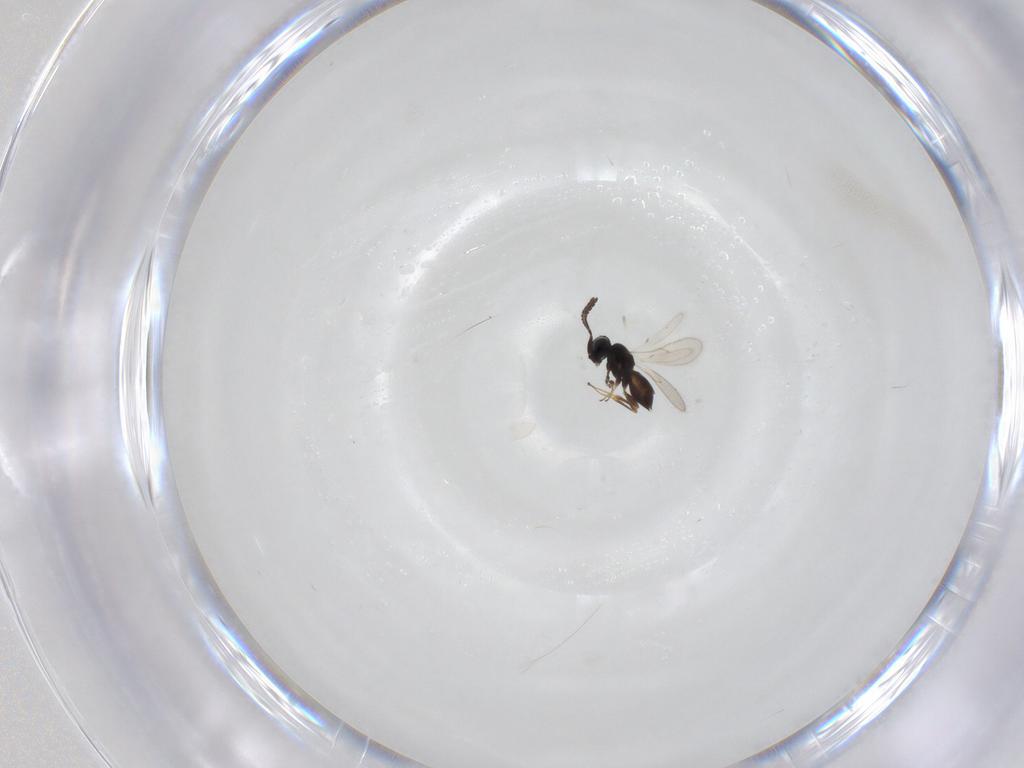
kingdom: Animalia
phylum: Arthropoda
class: Insecta
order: Hymenoptera
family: Scelionidae
